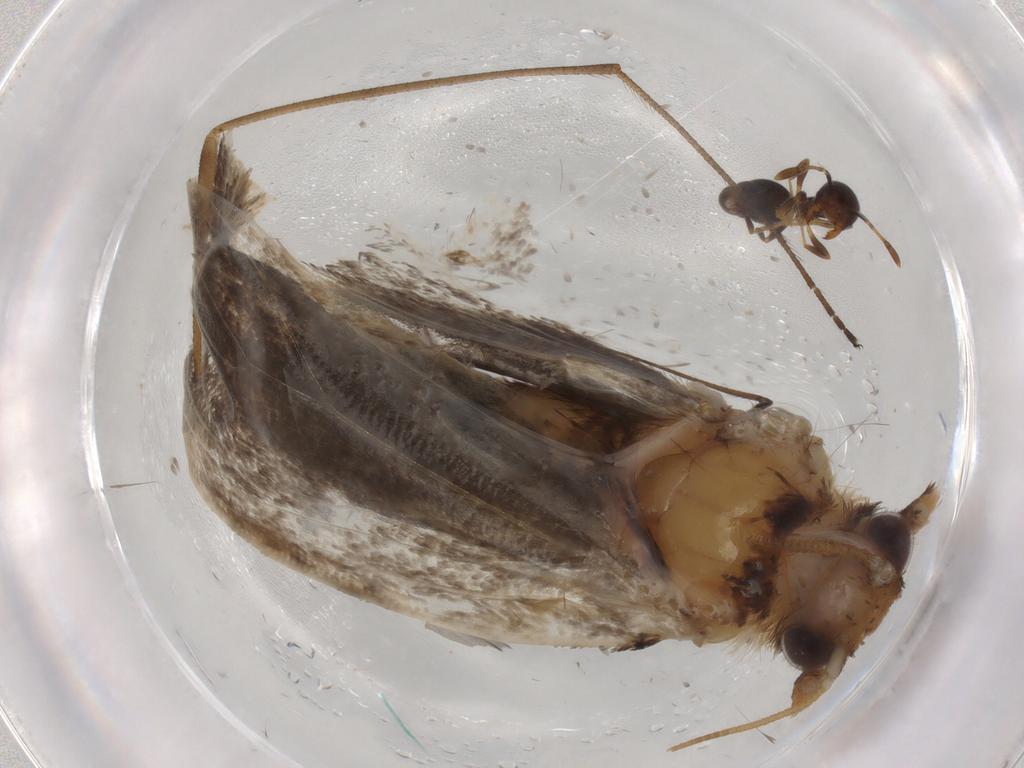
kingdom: Animalia
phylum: Arthropoda
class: Insecta
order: Lepidoptera
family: Tineidae
